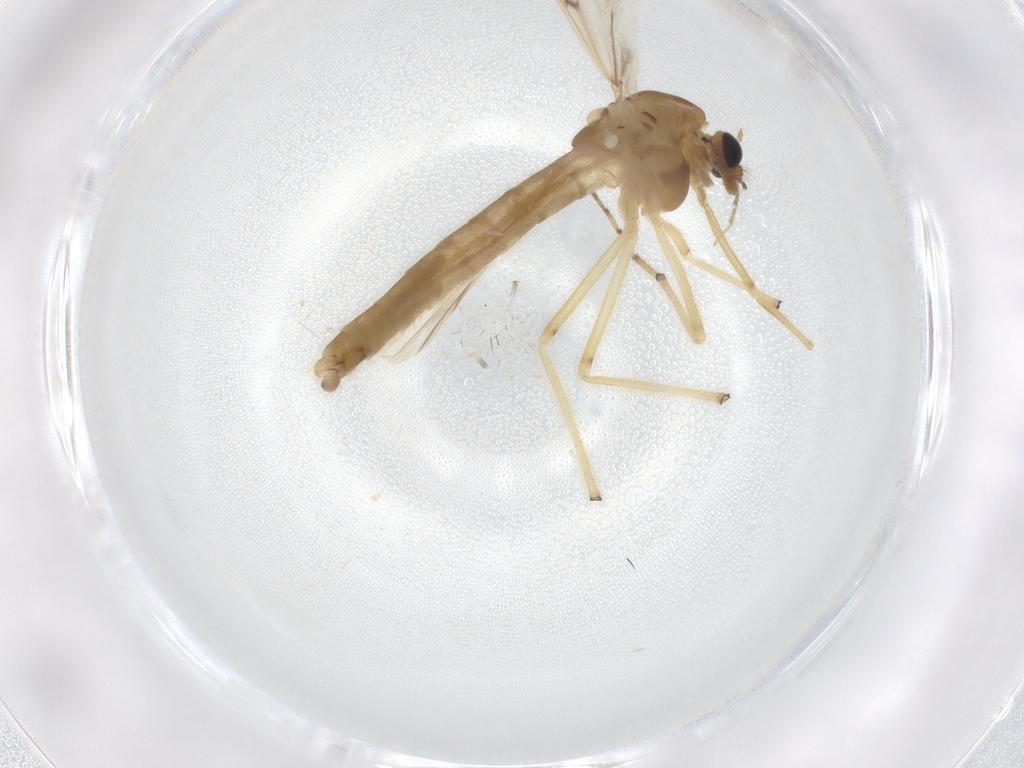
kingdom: Animalia
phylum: Arthropoda
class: Insecta
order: Diptera
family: Chironomidae
